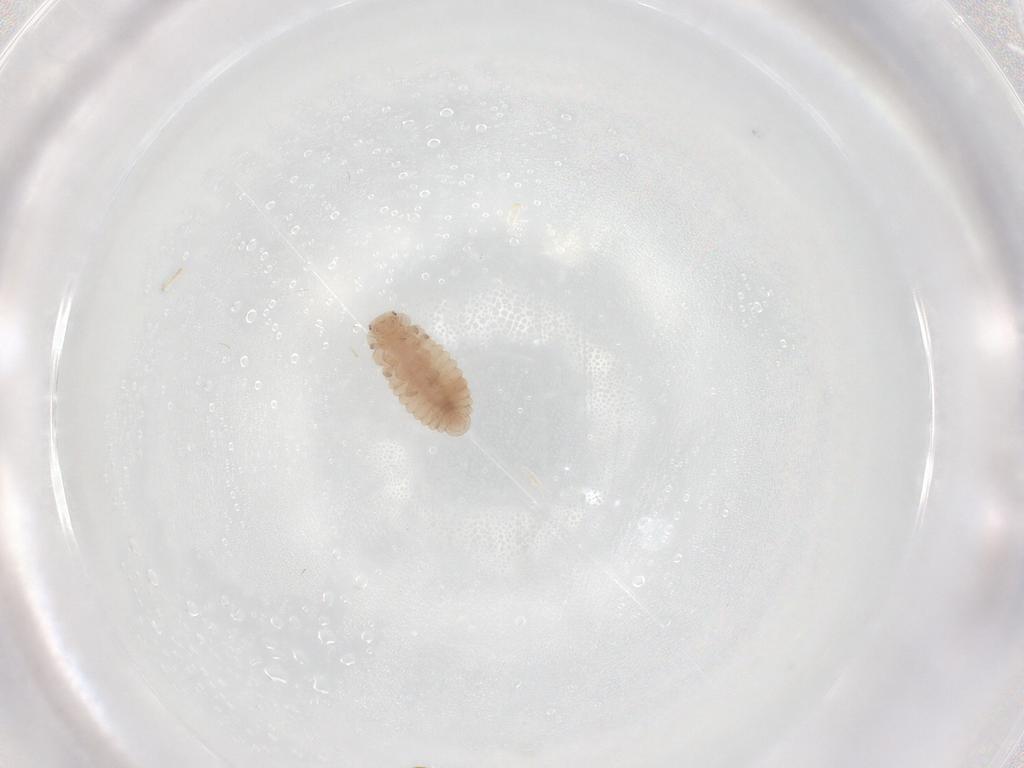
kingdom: Animalia
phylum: Arthropoda
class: Insecta
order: Coleoptera
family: Coccinellidae
